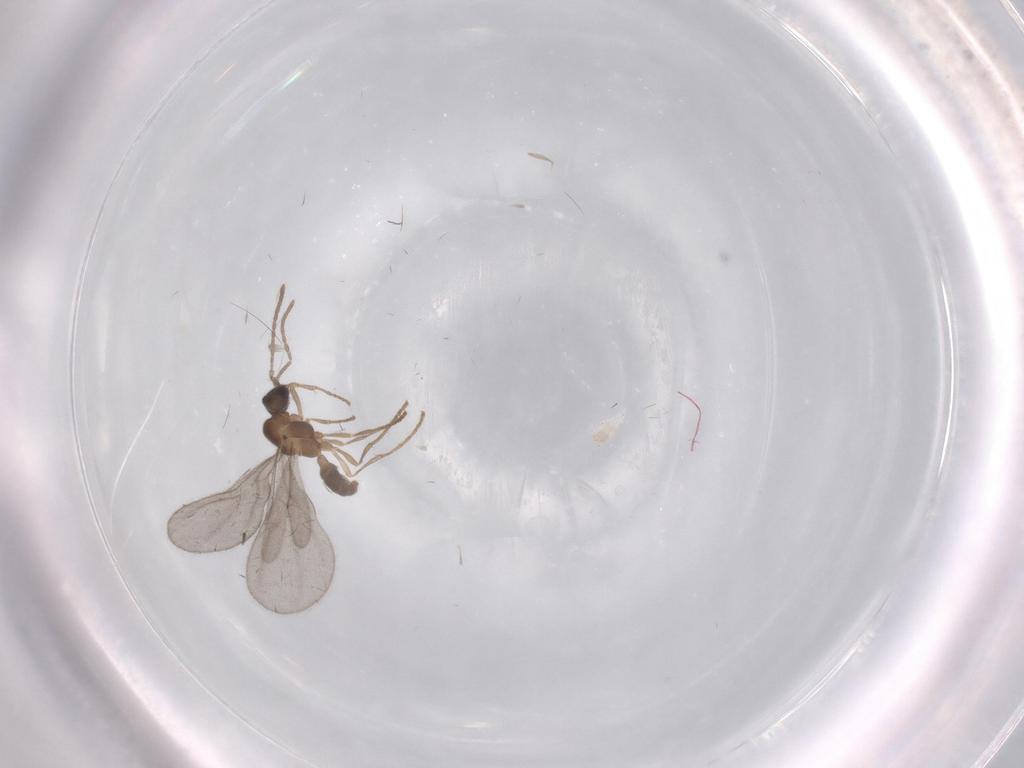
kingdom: Animalia
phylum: Arthropoda
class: Insecta
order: Hymenoptera
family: Formicidae
